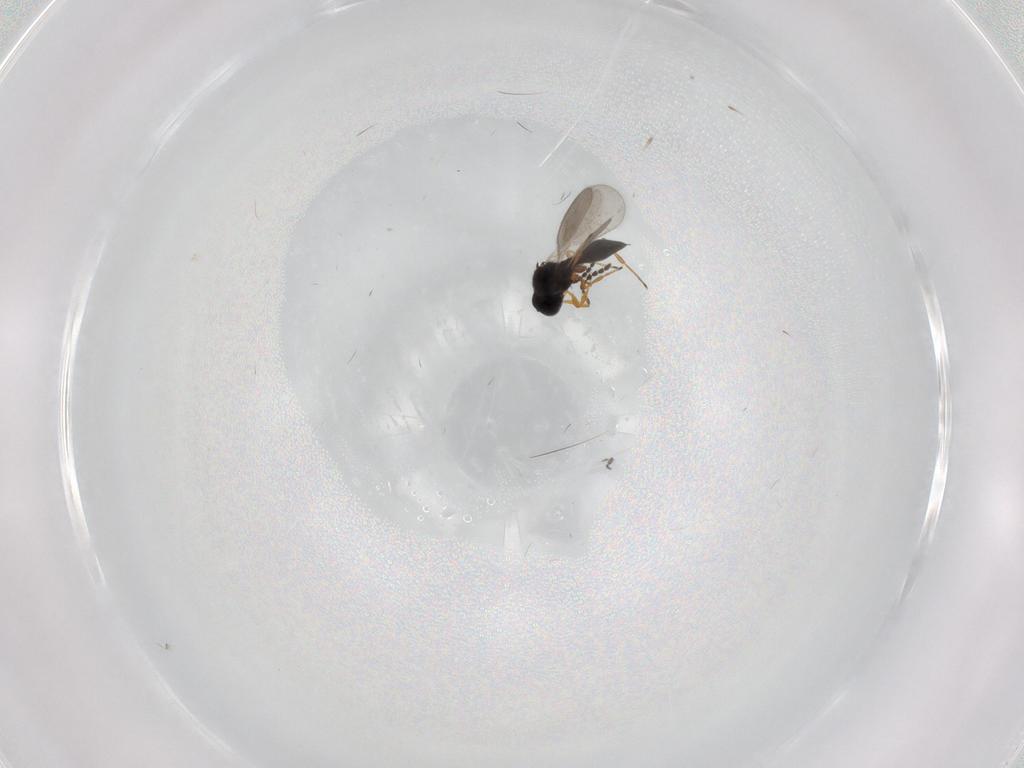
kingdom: Animalia
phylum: Arthropoda
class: Insecta
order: Hymenoptera
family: Platygastridae
